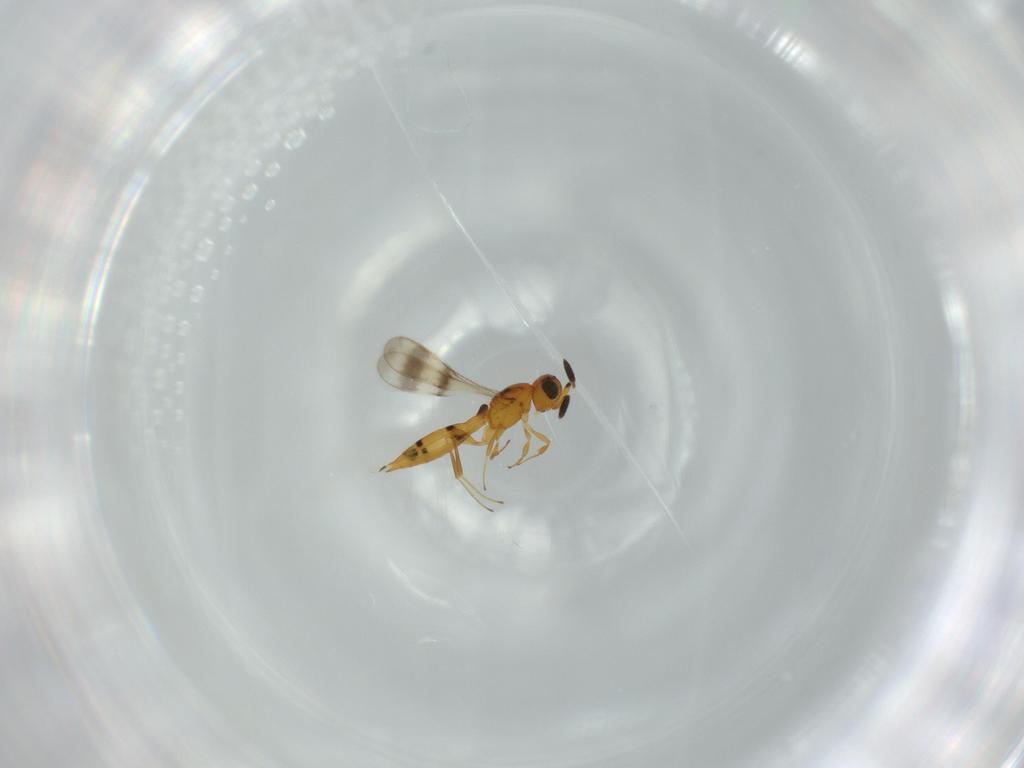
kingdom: Animalia
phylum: Arthropoda
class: Insecta
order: Hymenoptera
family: Scelionidae
